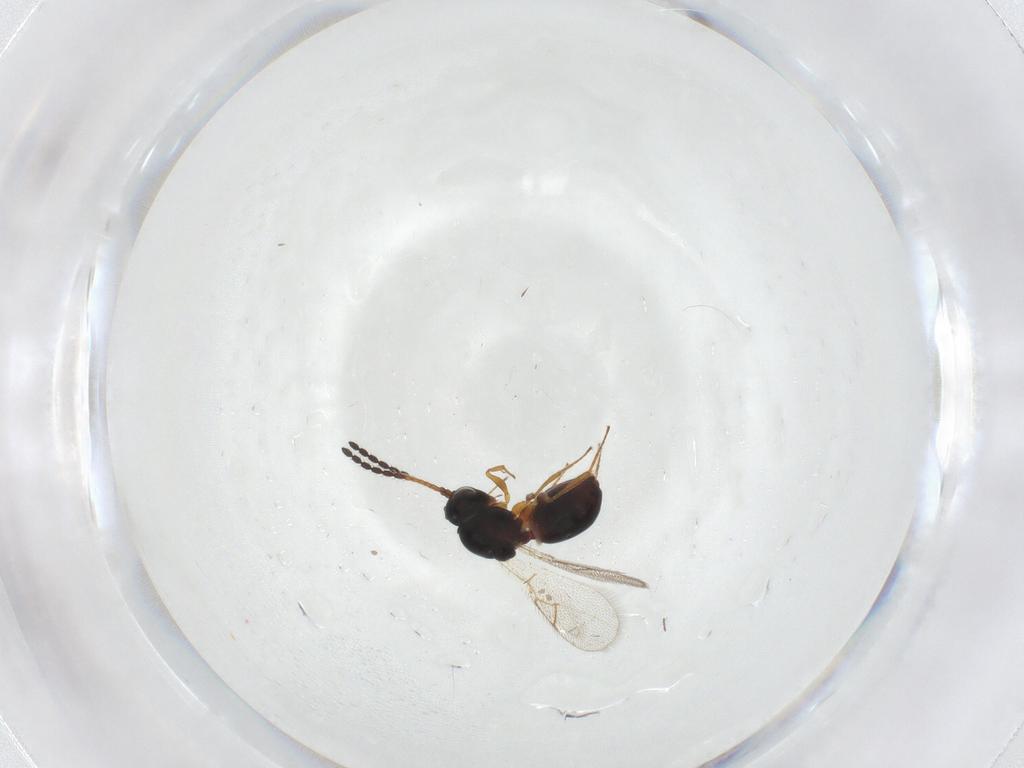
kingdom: Animalia
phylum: Arthropoda
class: Insecta
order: Hymenoptera
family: Figitidae
